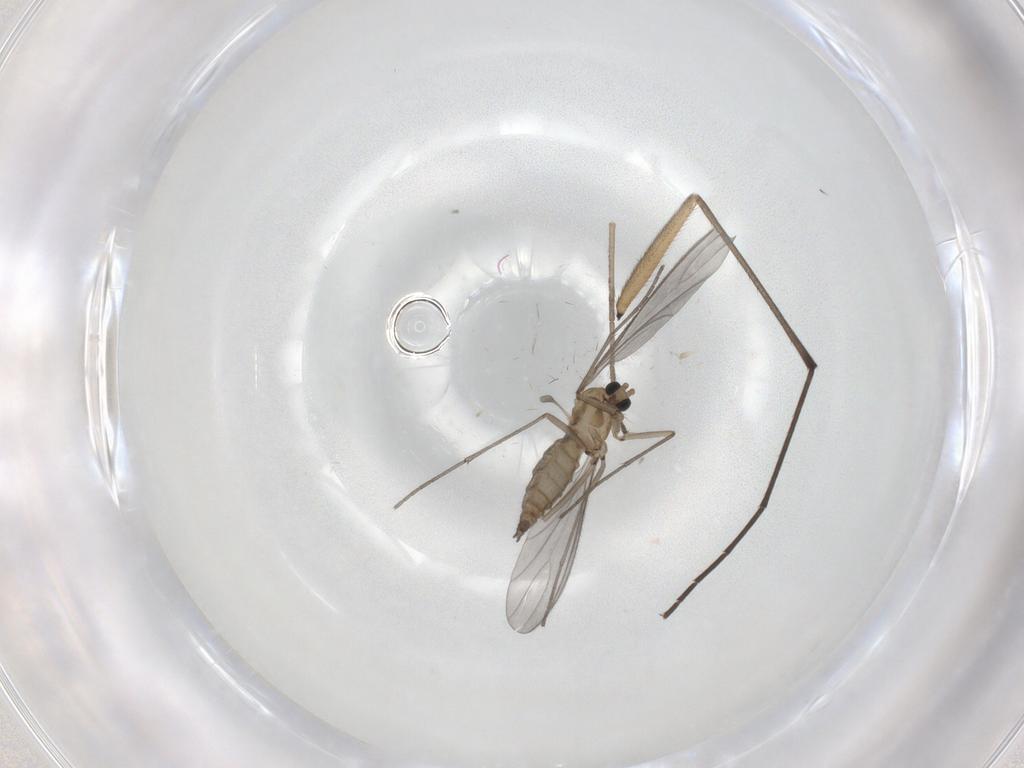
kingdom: Animalia
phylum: Arthropoda
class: Insecta
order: Diptera
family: Sciaridae
